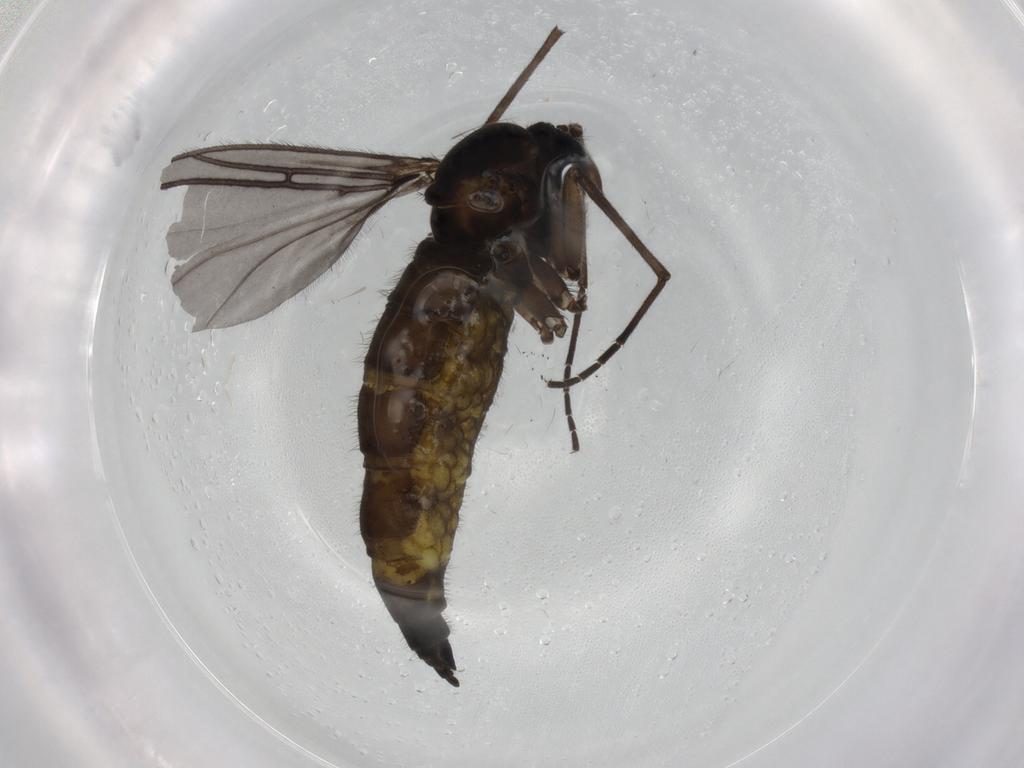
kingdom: Animalia
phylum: Arthropoda
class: Insecta
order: Diptera
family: Sciaridae
